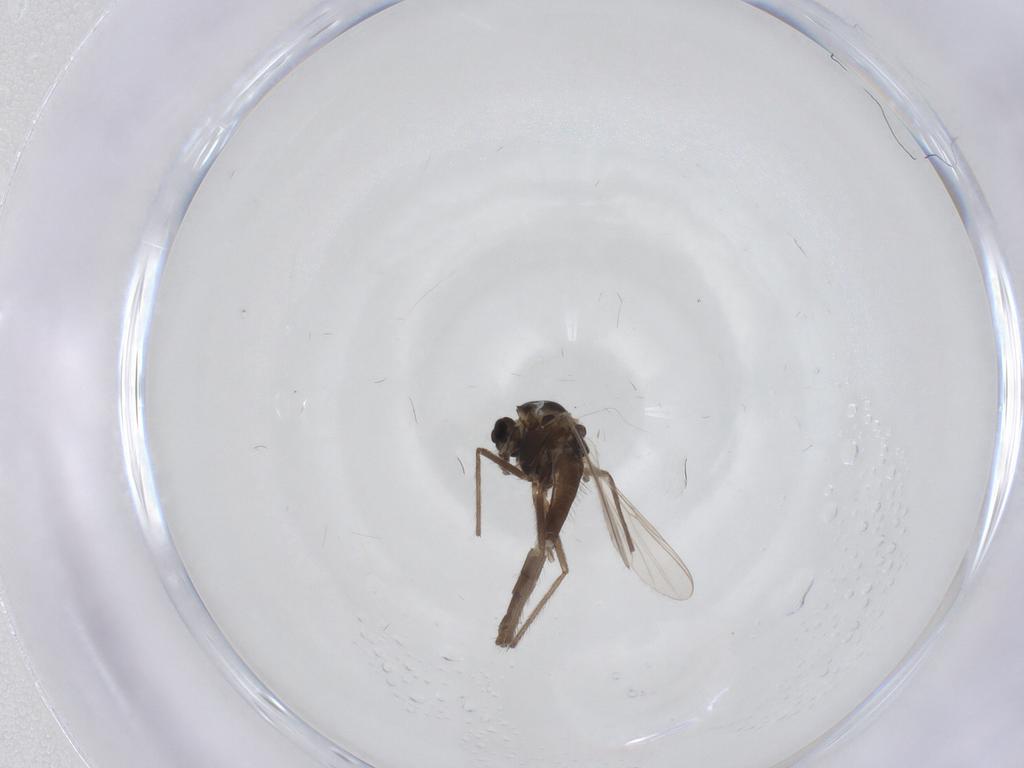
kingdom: Animalia
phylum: Arthropoda
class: Insecta
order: Diptera
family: Chironomidae
